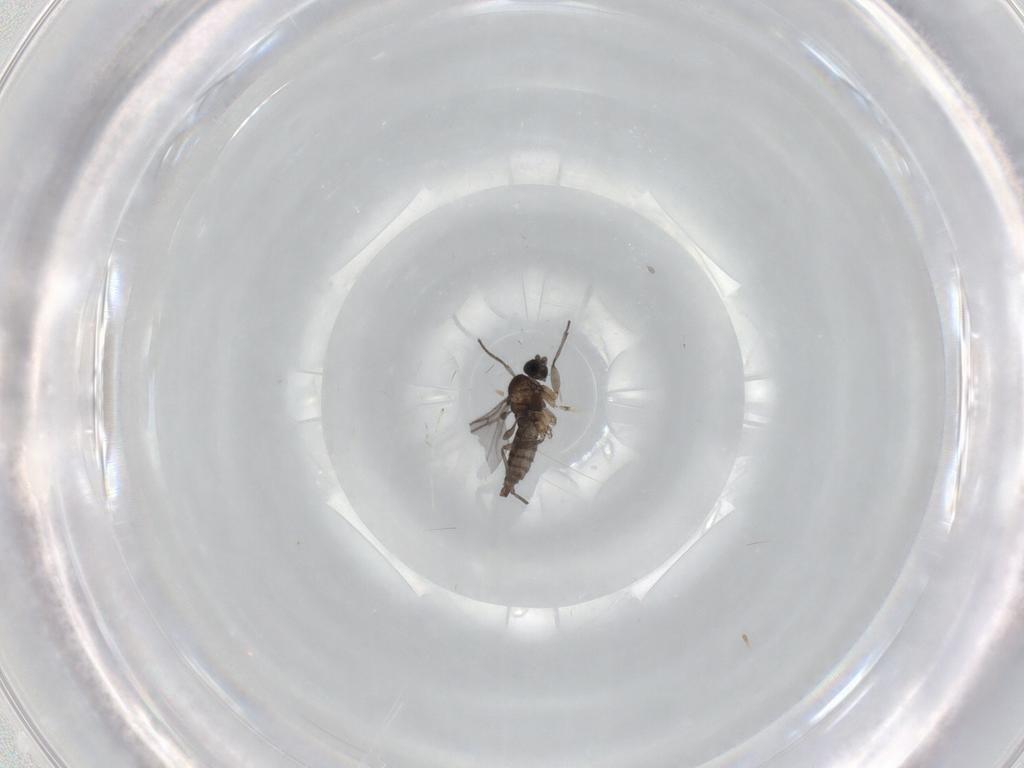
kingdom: Animalia
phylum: Arthropoda
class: Insecta
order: Diptera
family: Sciaridae
